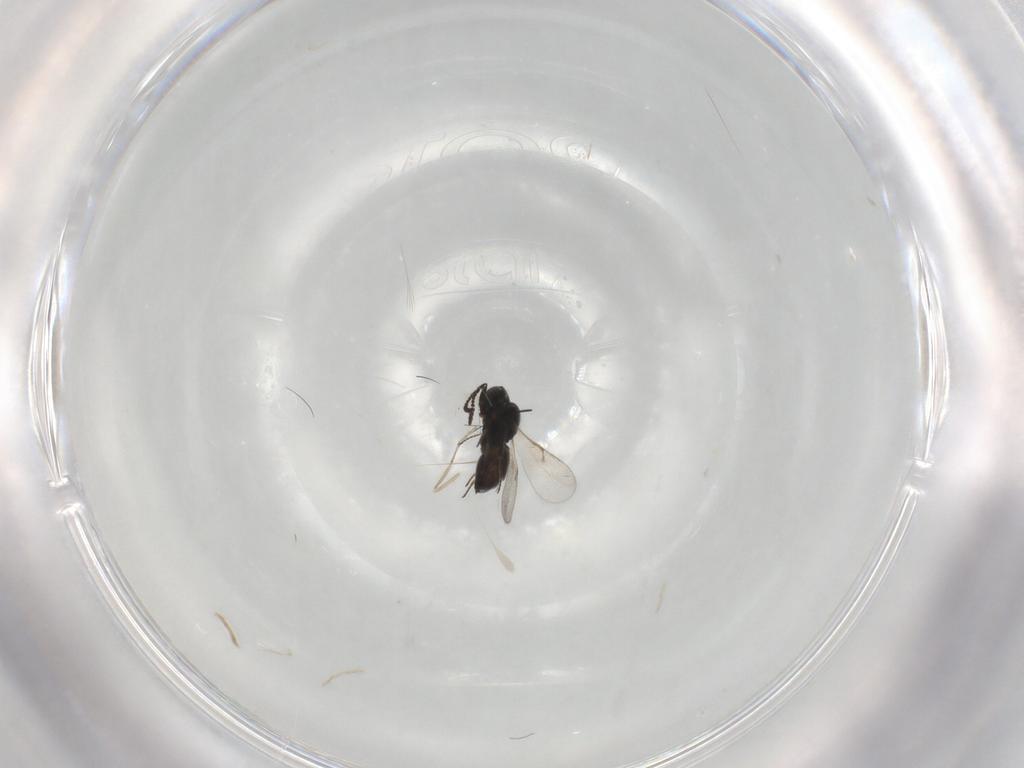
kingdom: Animalia
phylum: Arthropoda
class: Insecta
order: Hymenoptera
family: Scelionidae
